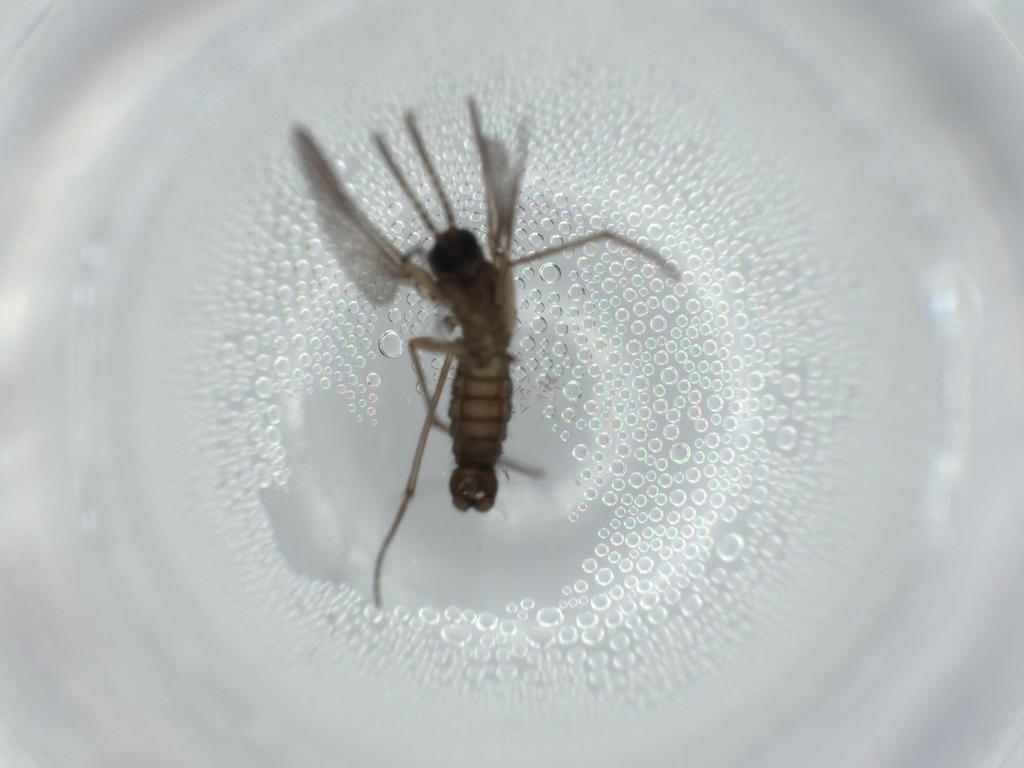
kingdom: Animalia
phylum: Arthropoda
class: Insecta
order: Diptera
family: Sciaridae
